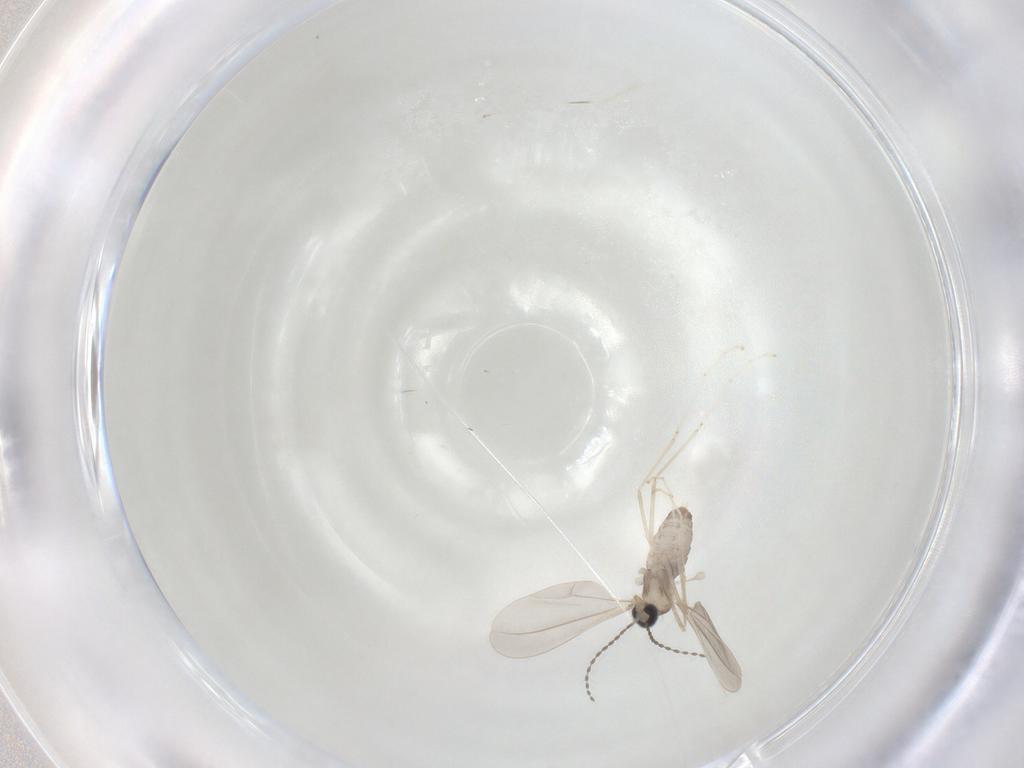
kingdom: Animalia
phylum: Arthropoda
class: Insecta
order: Diptera
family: Cecidomyiidae
